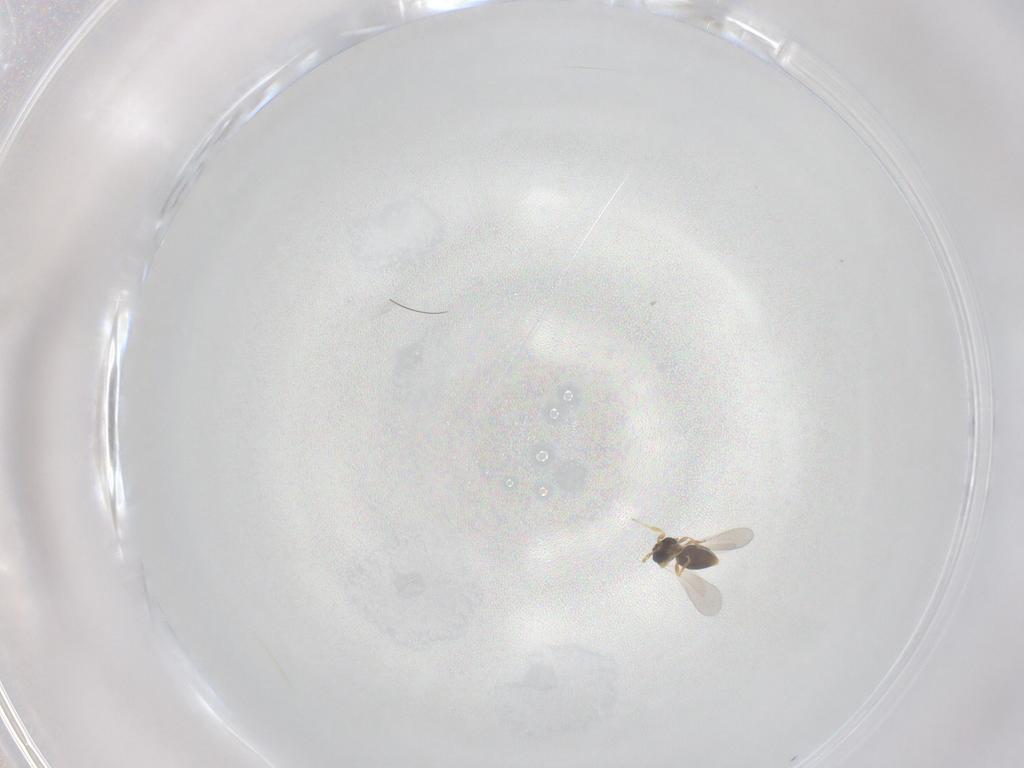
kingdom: Animalia
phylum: Arthropoda
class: Insecta
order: Hymenoptera
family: Platygastridae
